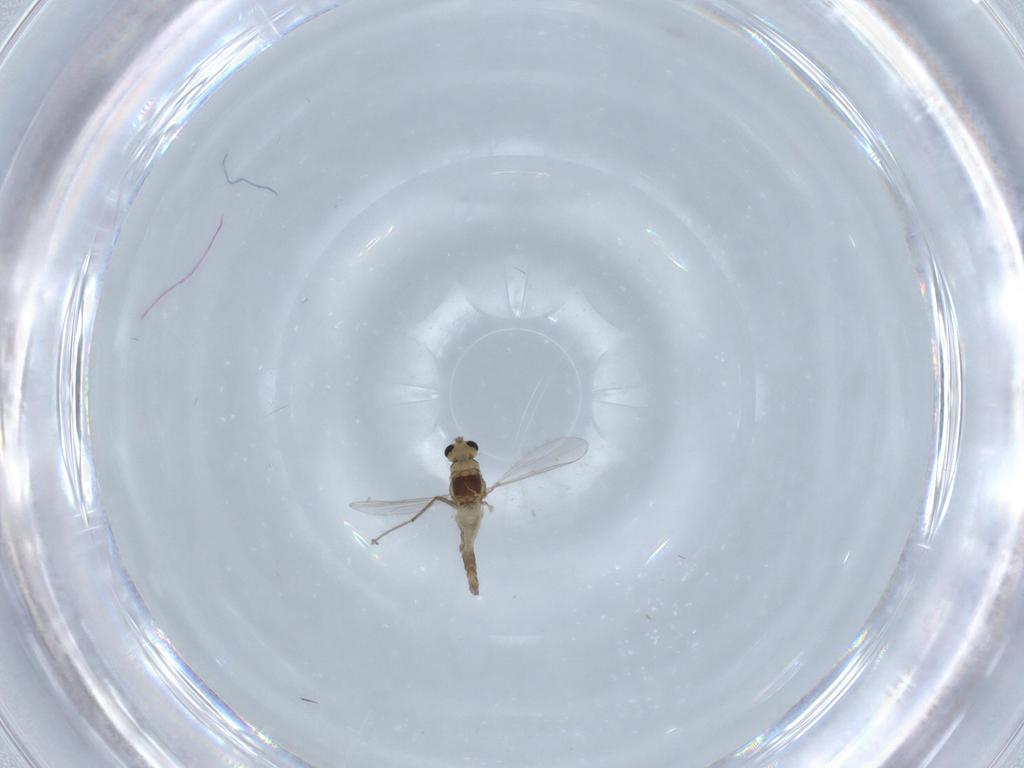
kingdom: Animalia
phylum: Arthropoda
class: Insecta
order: Diptera
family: Chironomidae
